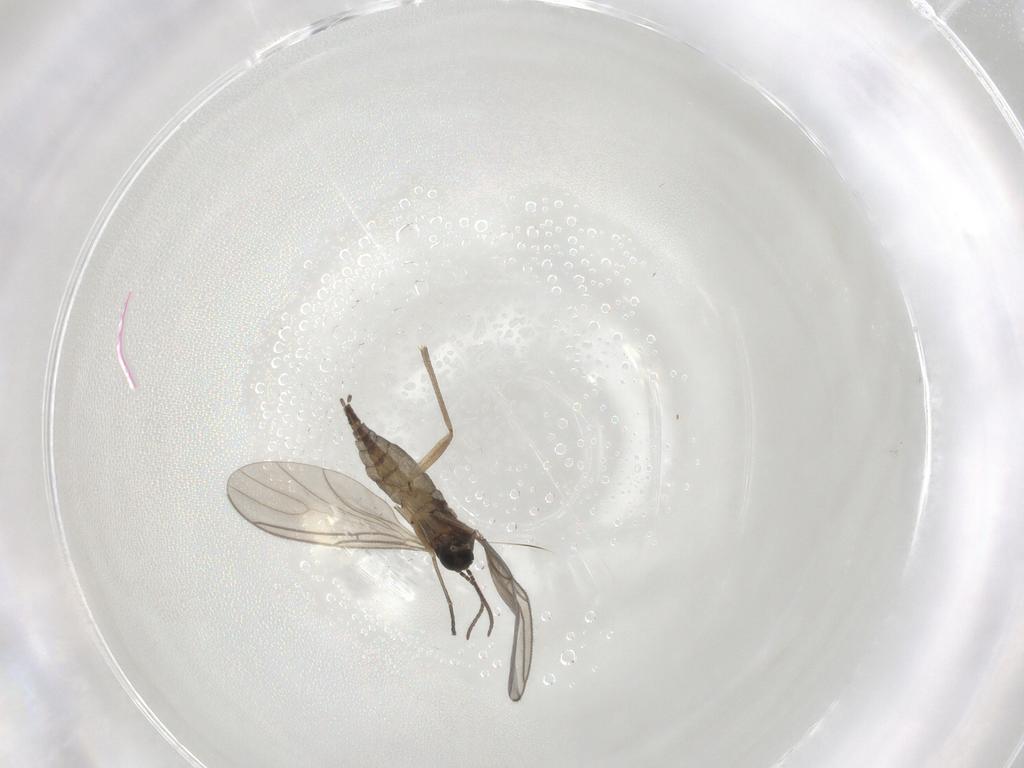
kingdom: Animalia
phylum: Arthropoda
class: Insecta
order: Diptera
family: Sciaridae
